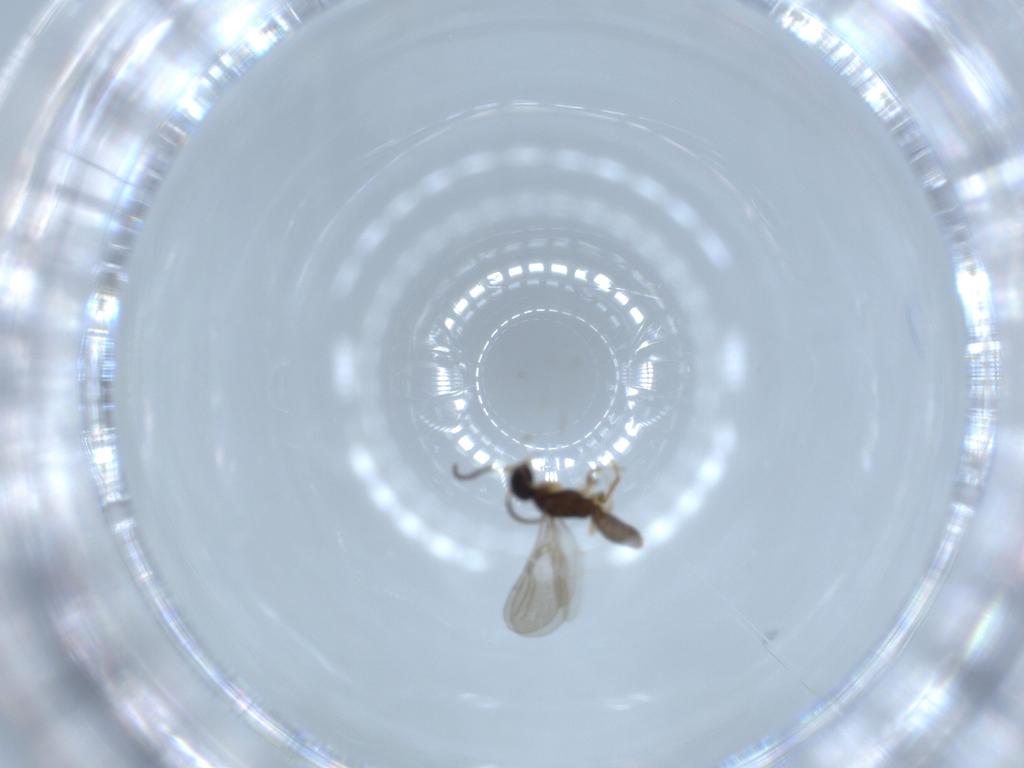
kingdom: Animalia
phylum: Arthropoda
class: Insecta
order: Hymenoptera
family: Bethylidae
